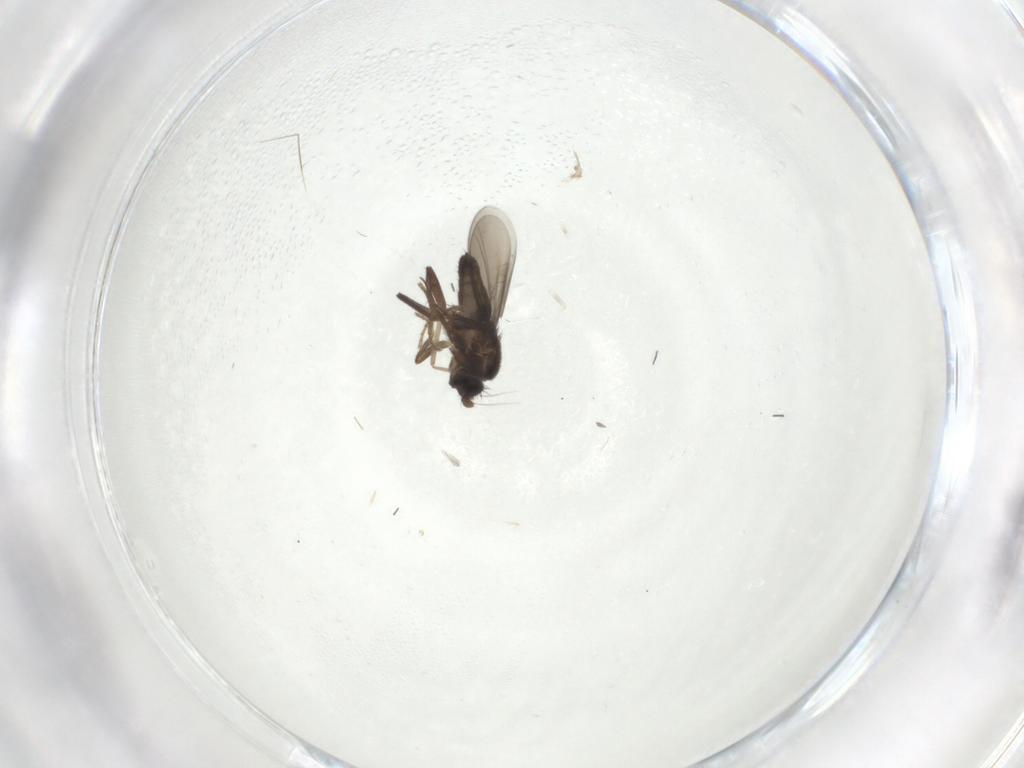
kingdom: Animalia
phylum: Arthropoda
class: Insecta
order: Diptera
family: Chironomidae
